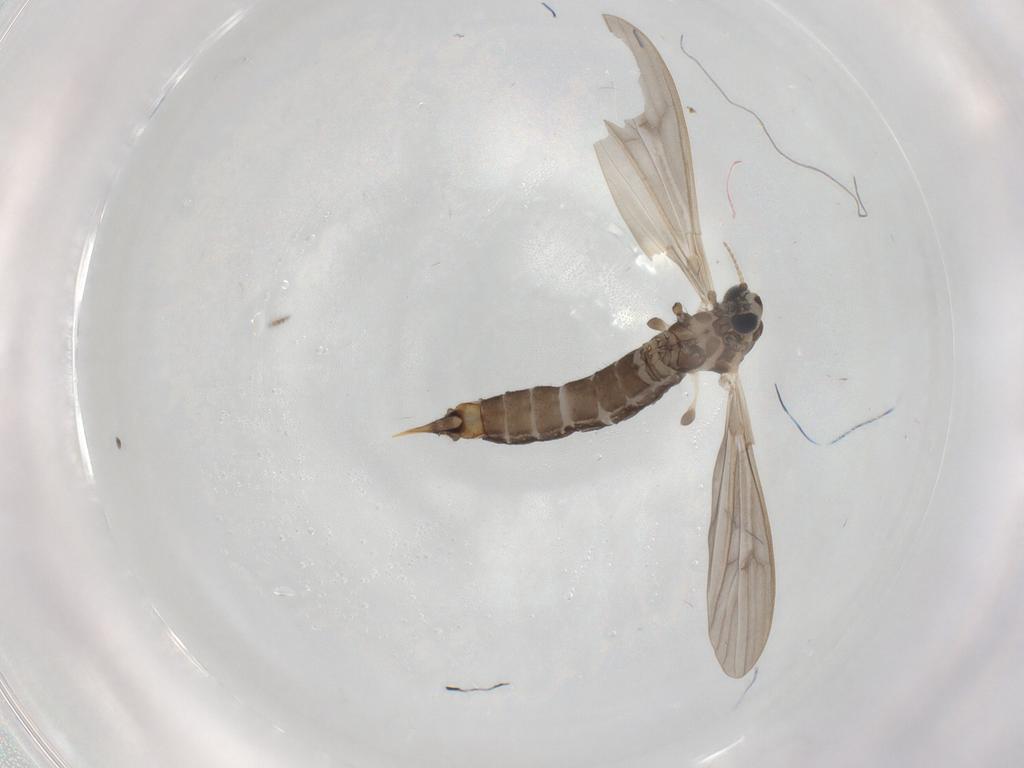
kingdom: Animalia
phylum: Arthropoda
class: Insecta
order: Diptera
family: Limoniidae
